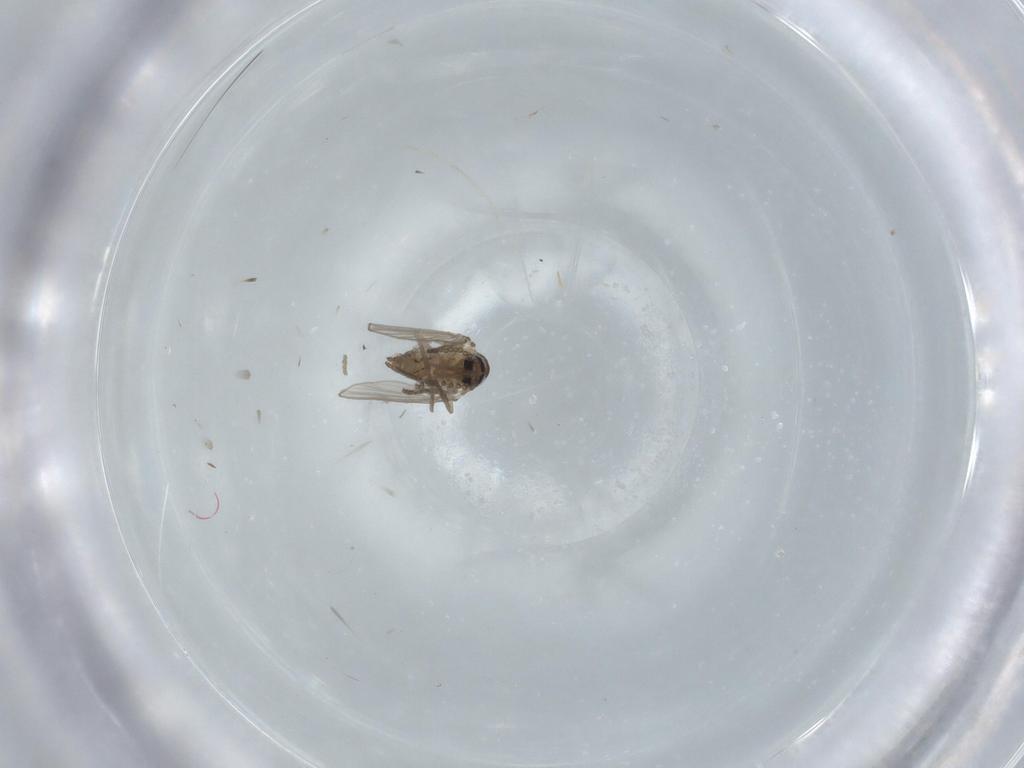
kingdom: Animalia
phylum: Arthropoda
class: Insecta
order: Diptera
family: Psychodidae
